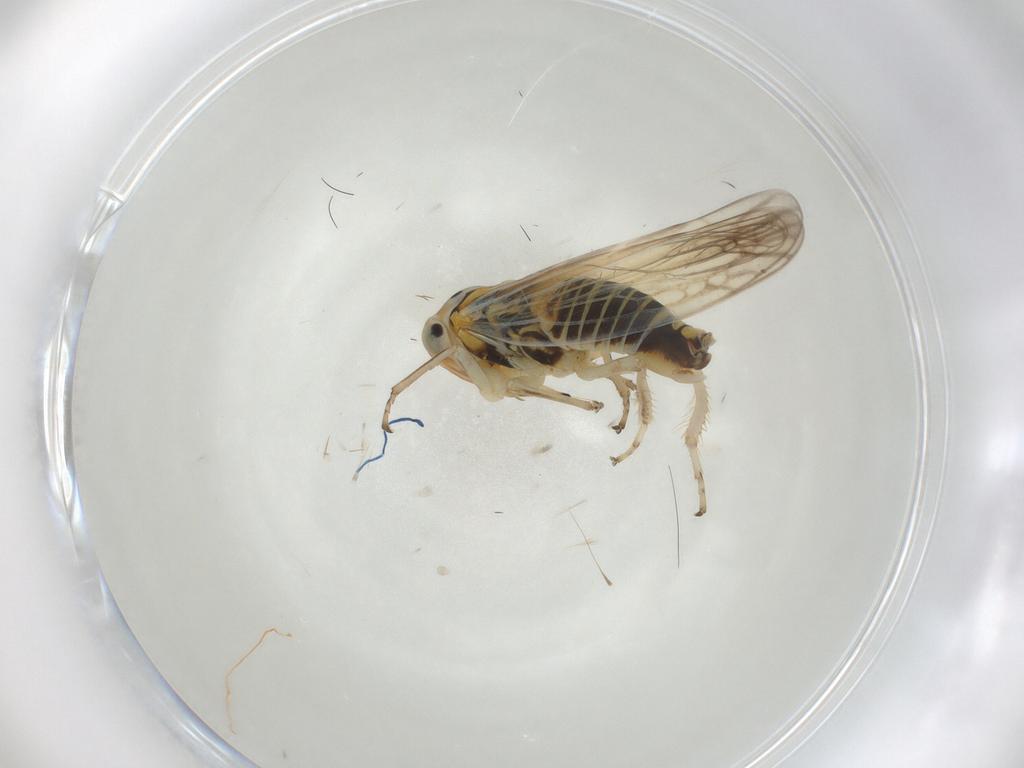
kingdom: Animalia
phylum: Arthropoda
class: Insecta
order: Hemiptera
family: Cicadellidae
